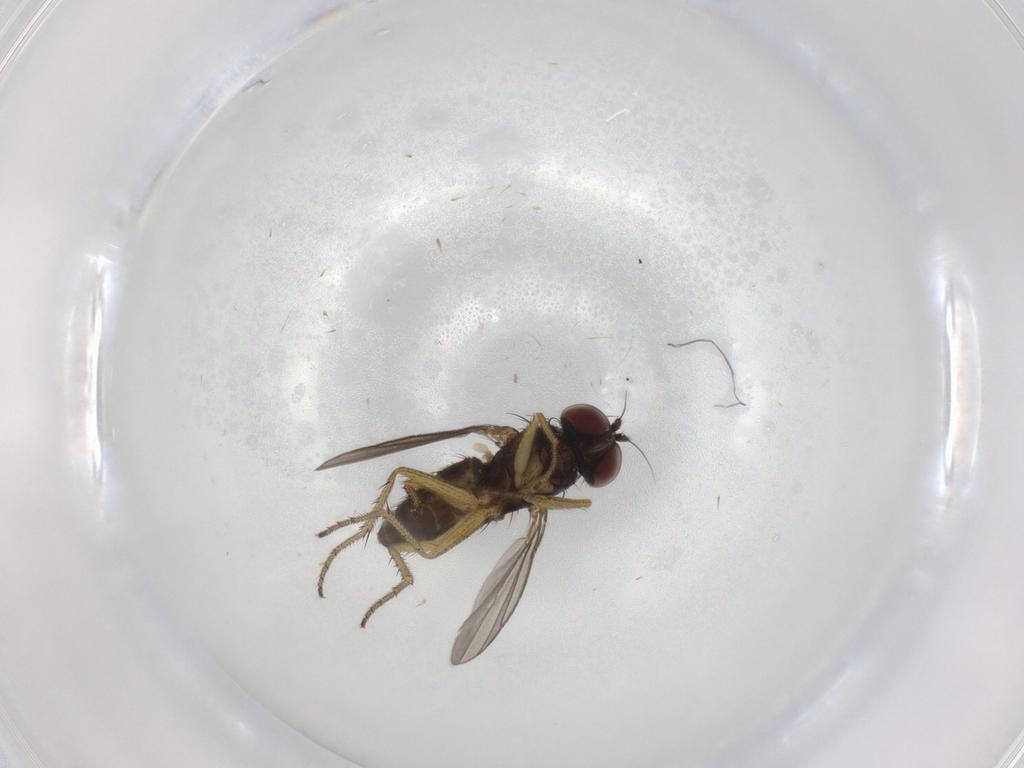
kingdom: Animalia
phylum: Arthropoda
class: Insecta
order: Diptera
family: Dolichopodidae
